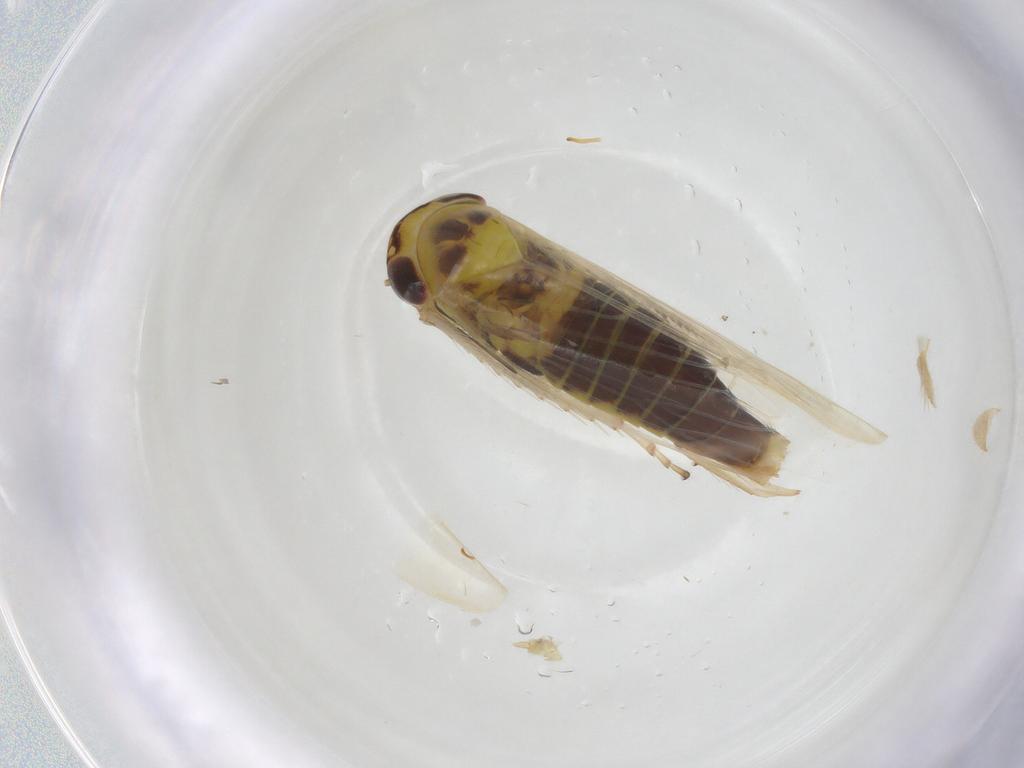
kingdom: Animalia
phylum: Arthropoda
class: Insecta
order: Hemiptera
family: Cicadellidae
